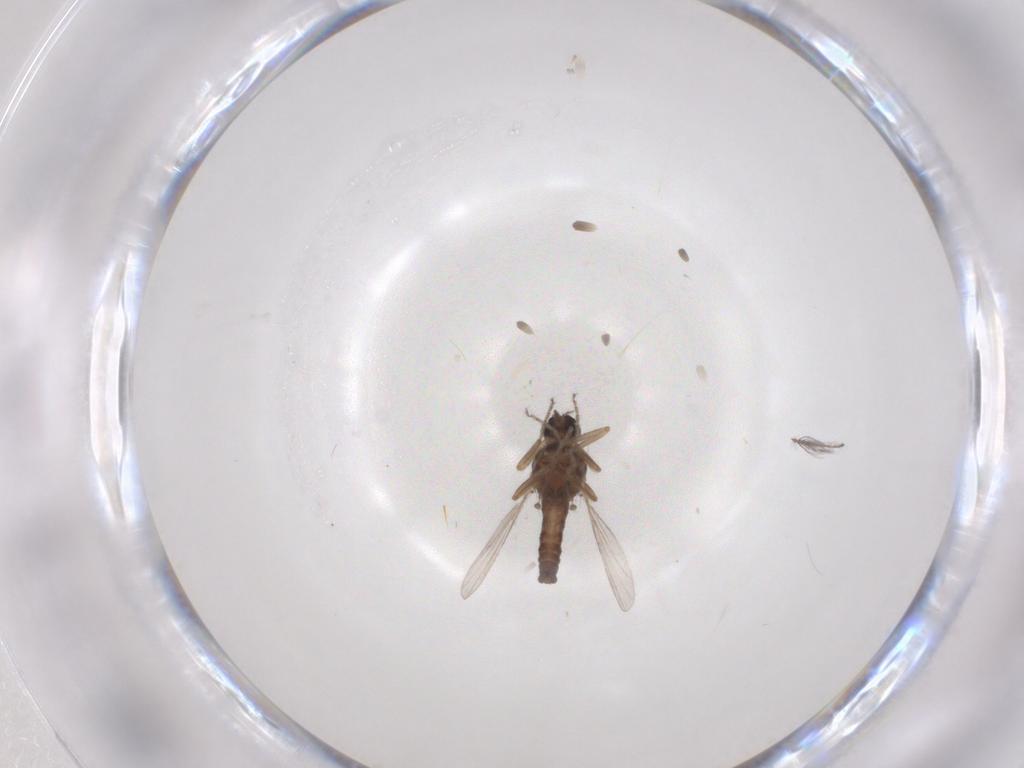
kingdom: Animalia
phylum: Arthropoda
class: Insecta
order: Diptera
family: Ceratopogonidae
